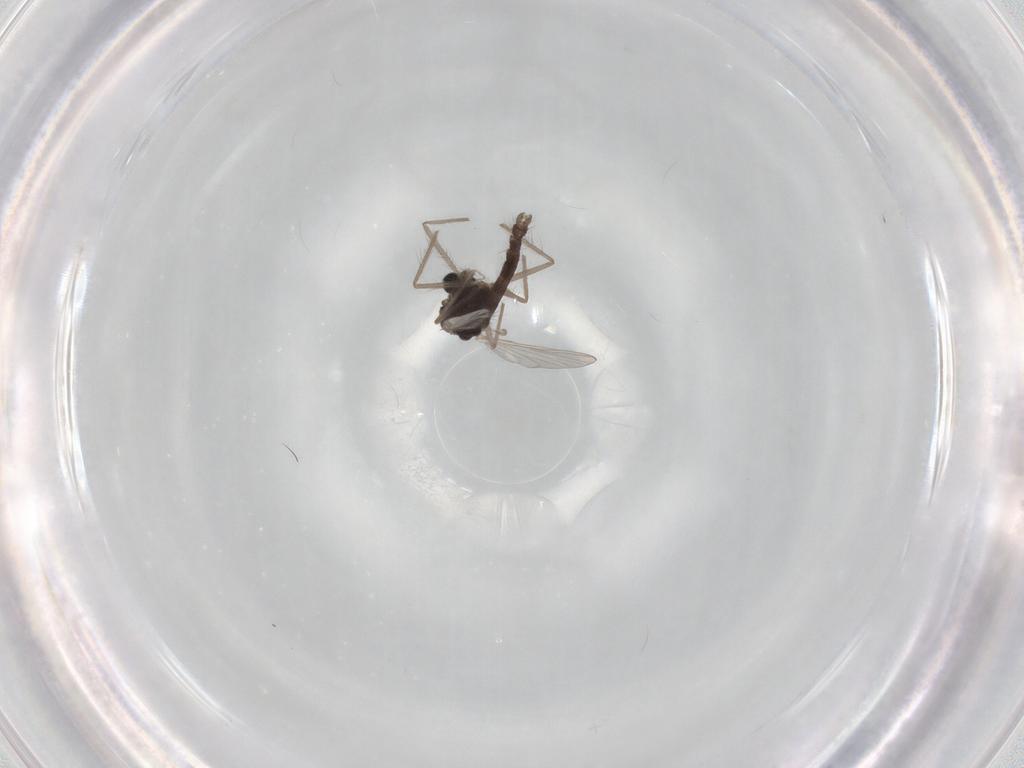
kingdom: Animalia
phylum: Arthropoda
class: Insecta
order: Diptera
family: Chironomidae
